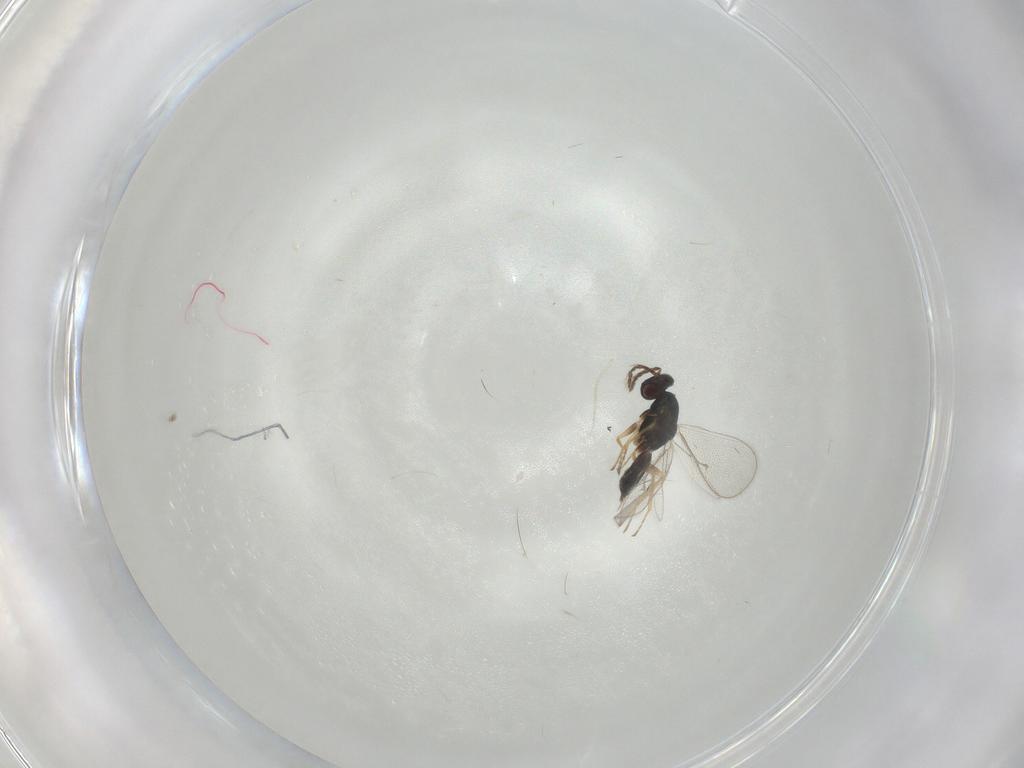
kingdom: Animalia
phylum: Arthropoda
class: Insecta
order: Hymenoptera
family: Eulophidae
